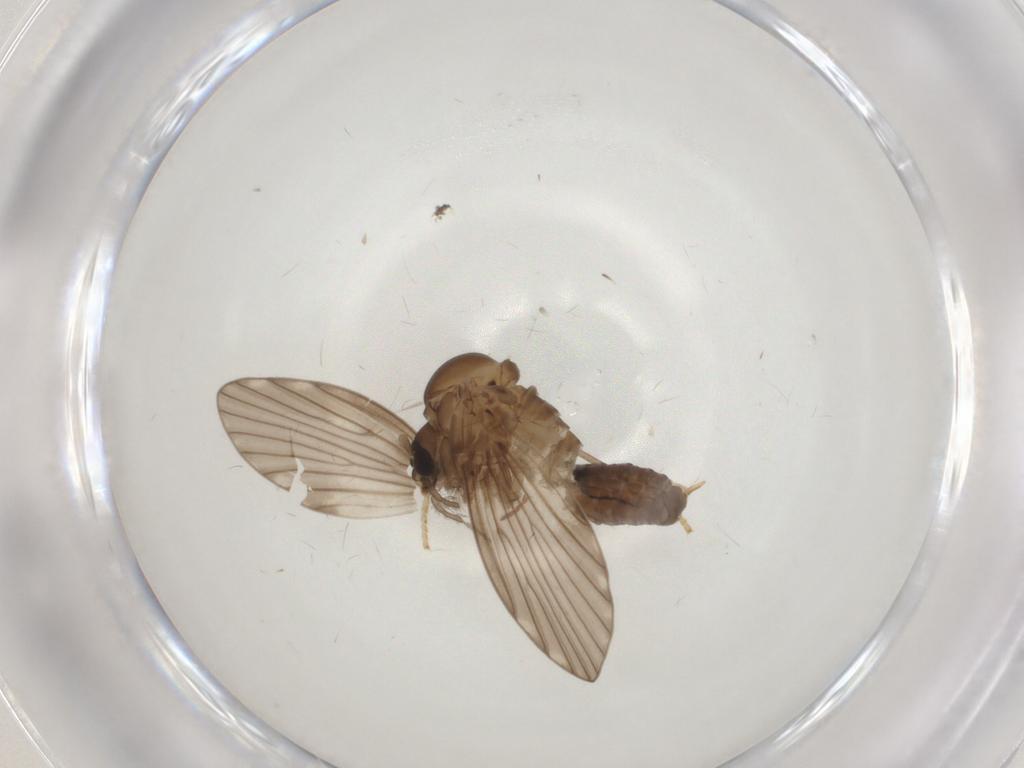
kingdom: Animalia
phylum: Arthropoda
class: Insecta
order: Diptera
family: Psychodidae
